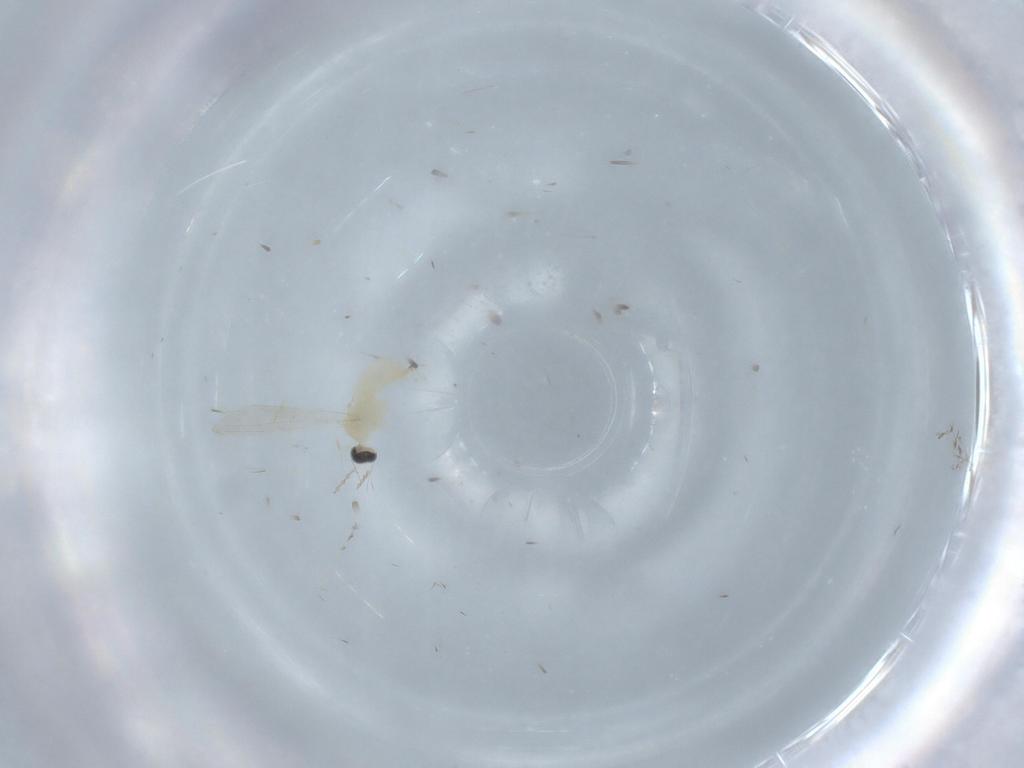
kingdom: Animalia
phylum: Arthropoda
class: Insecta
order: Diptera
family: Cecidomyiidae
